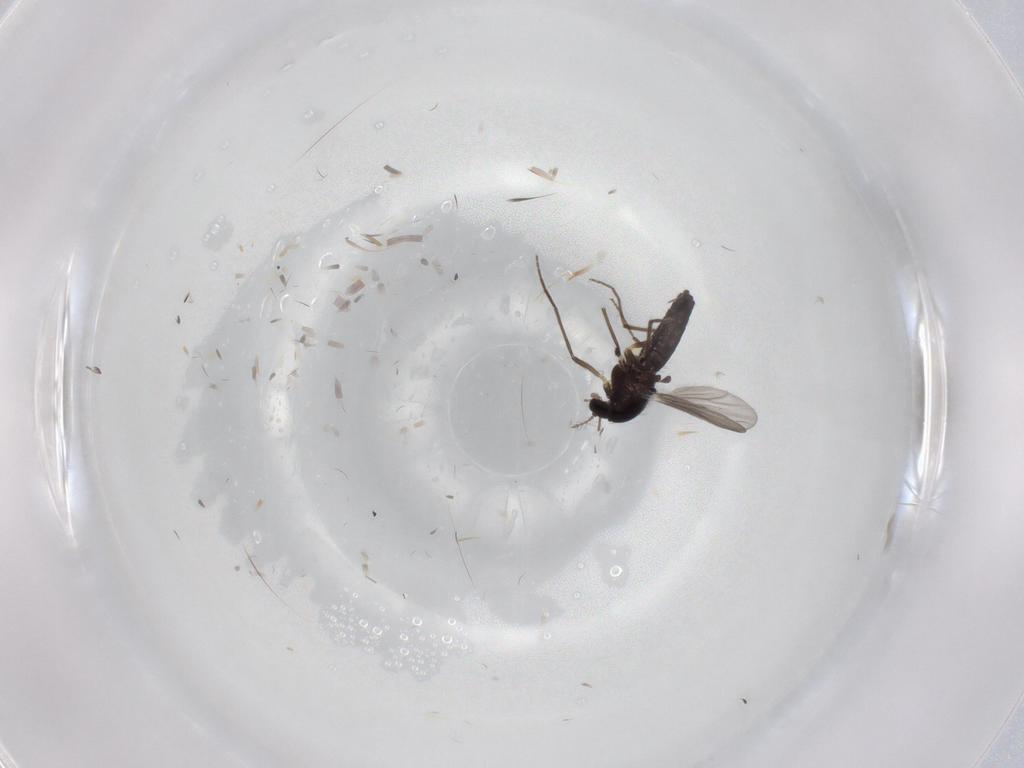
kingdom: Animalia
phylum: Arthropoda
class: Insecta
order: Diptera
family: Chironomidae
